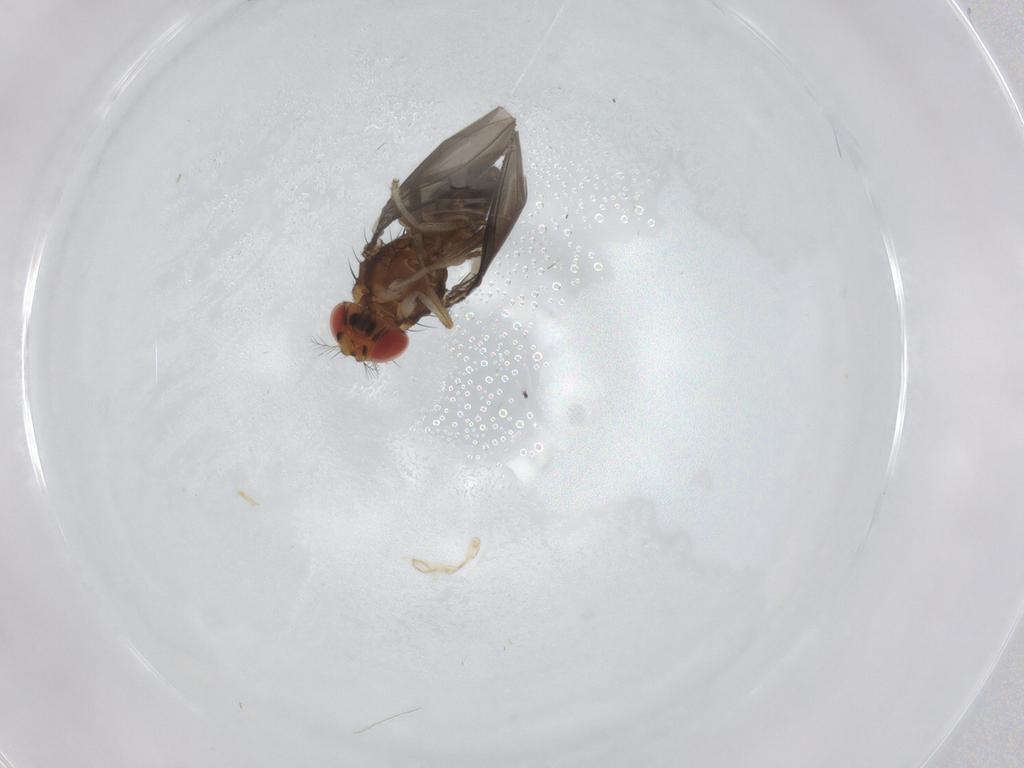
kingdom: Animalia
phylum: Arthropoda
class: Insecta
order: Diptera
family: Drosophilidae
